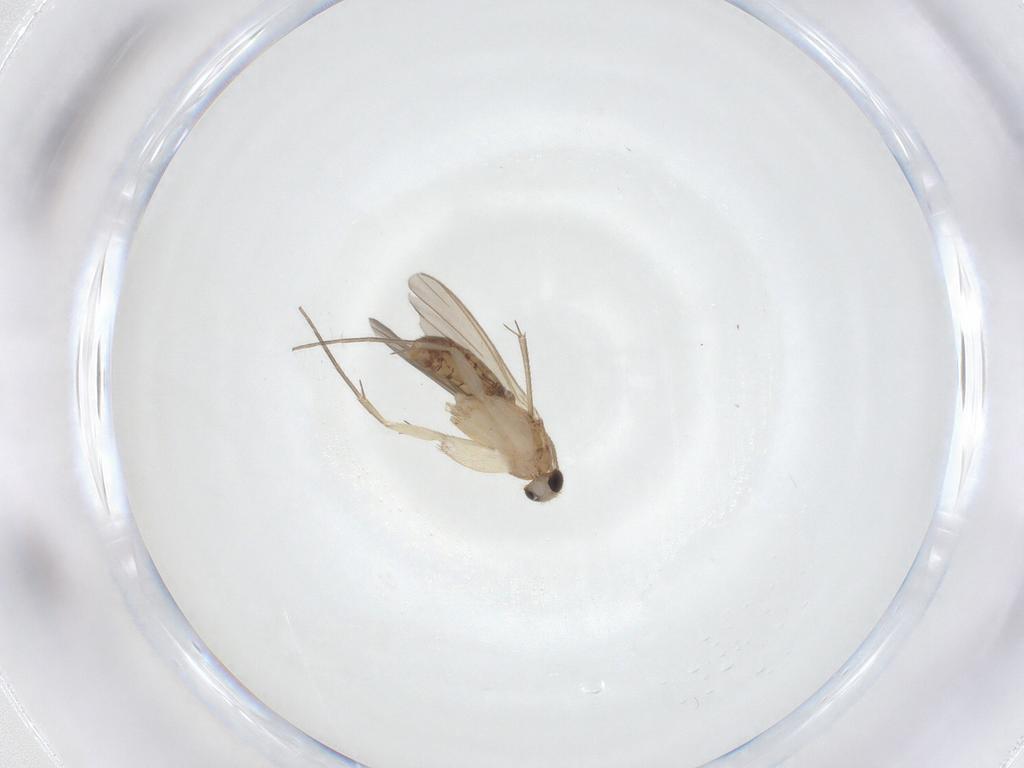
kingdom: Animalia
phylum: Arthropoda
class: Insecta
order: Diptera
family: Mycetophilidae
